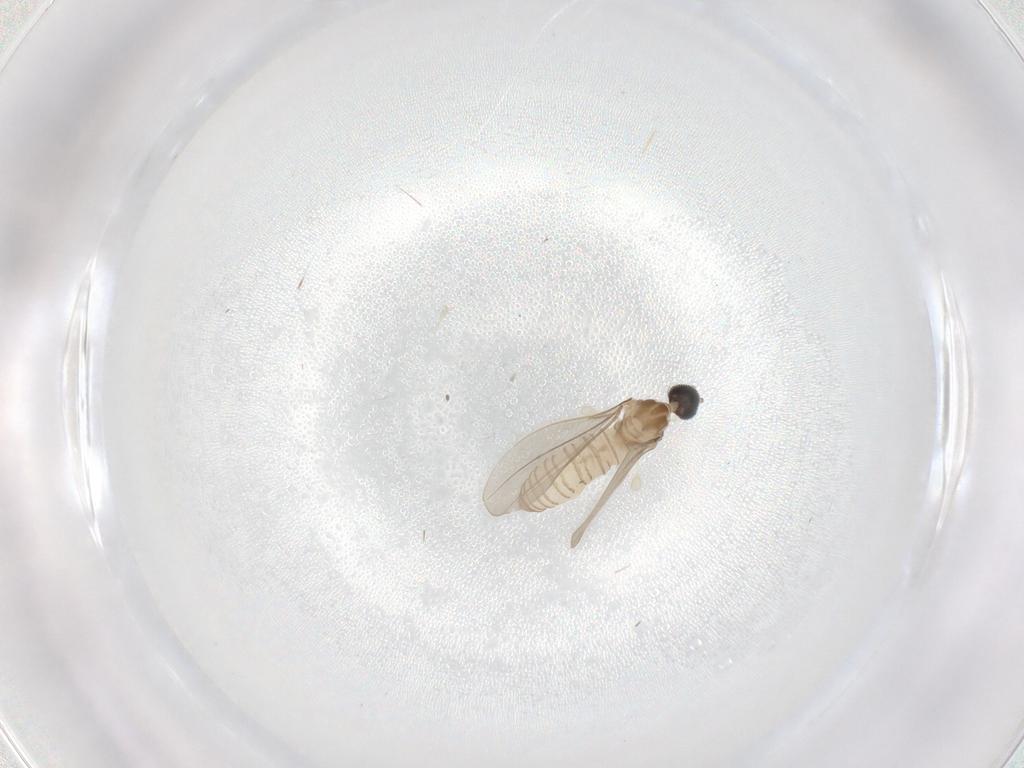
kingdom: Animalia
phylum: Arthropoda
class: Insecta
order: Diptera
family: Cecidomyiidae
